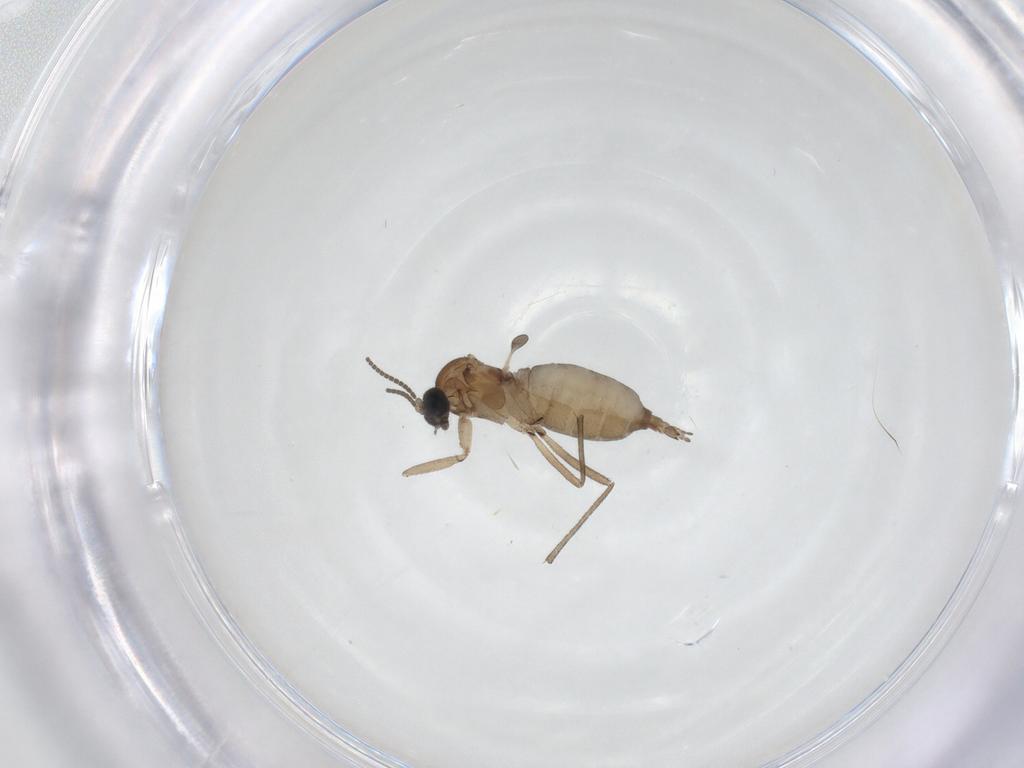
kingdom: Animalia
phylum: Arthropoda
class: Insecta
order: Diptera
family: Sciaridae
